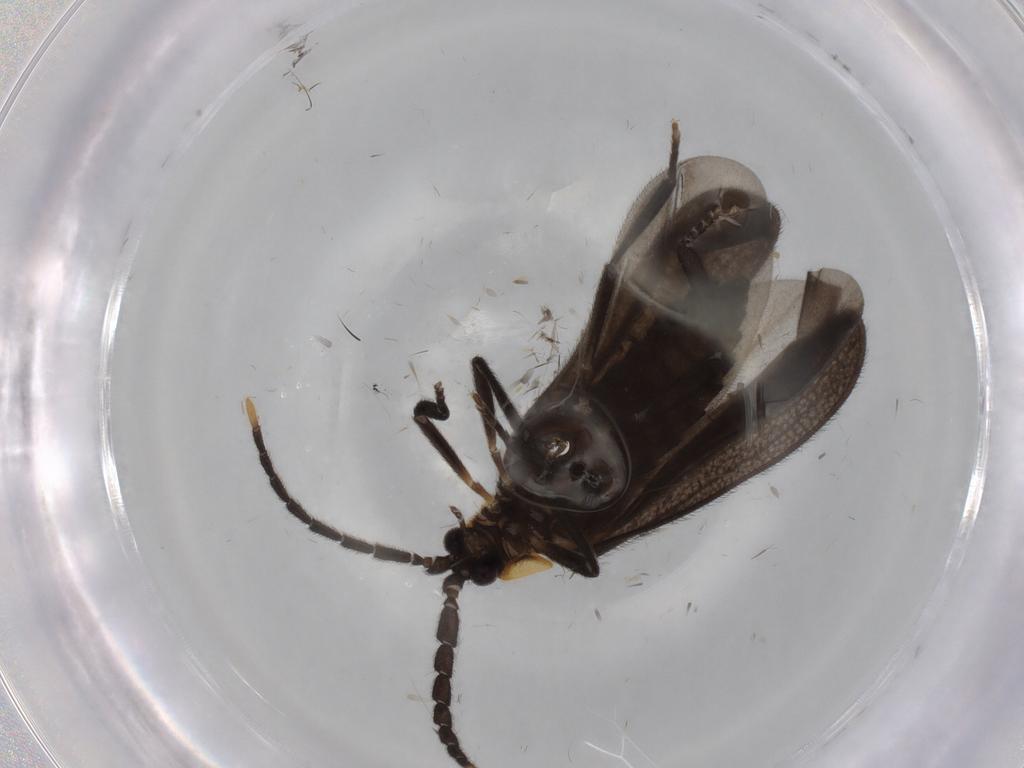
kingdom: Animalia
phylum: Arthropoda
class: Insecta
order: Coleoptera
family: Lycidae
